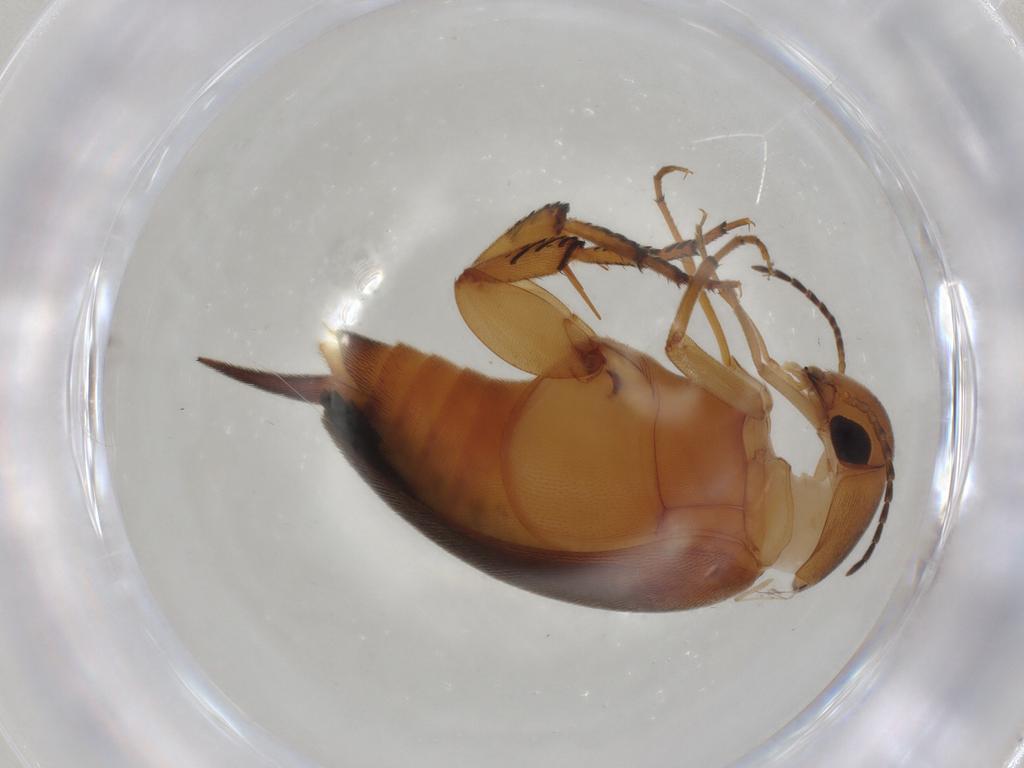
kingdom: Animalia
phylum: Arthropoda
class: Insecta
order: Coleoptera
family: Mordellidae
